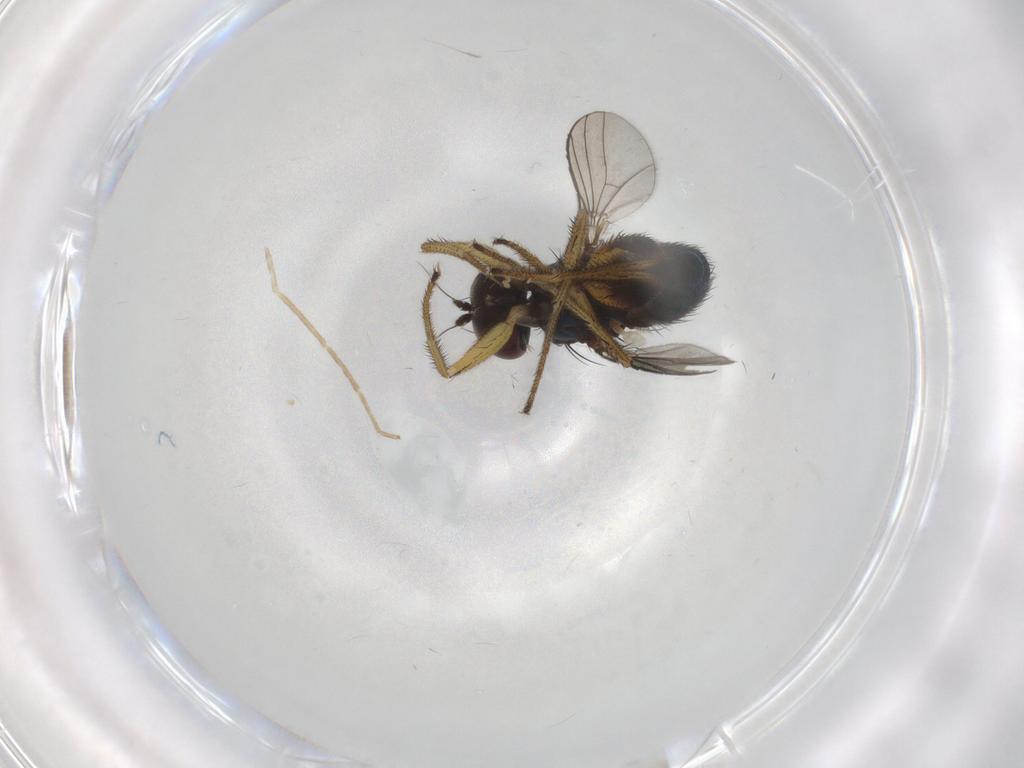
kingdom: Animalia
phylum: Arthropoda
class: Insecta
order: Diptera
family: Dolichopodidae
